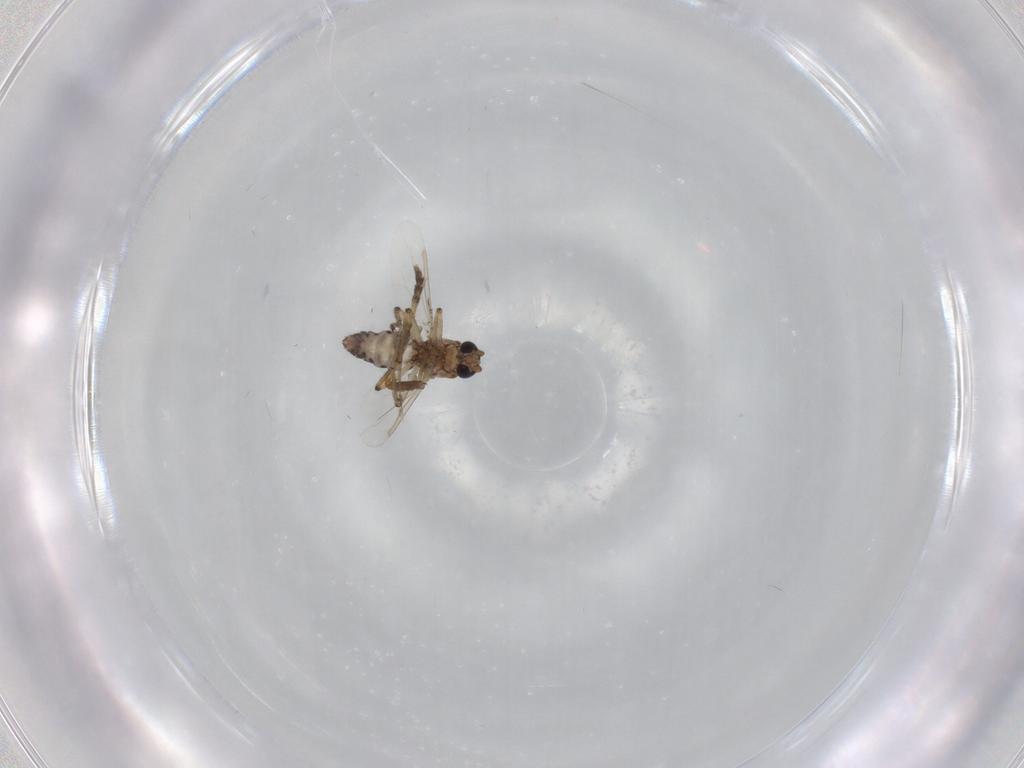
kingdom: Animalia
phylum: Arthropoda
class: Insecta
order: Diptera
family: Psychodidae
